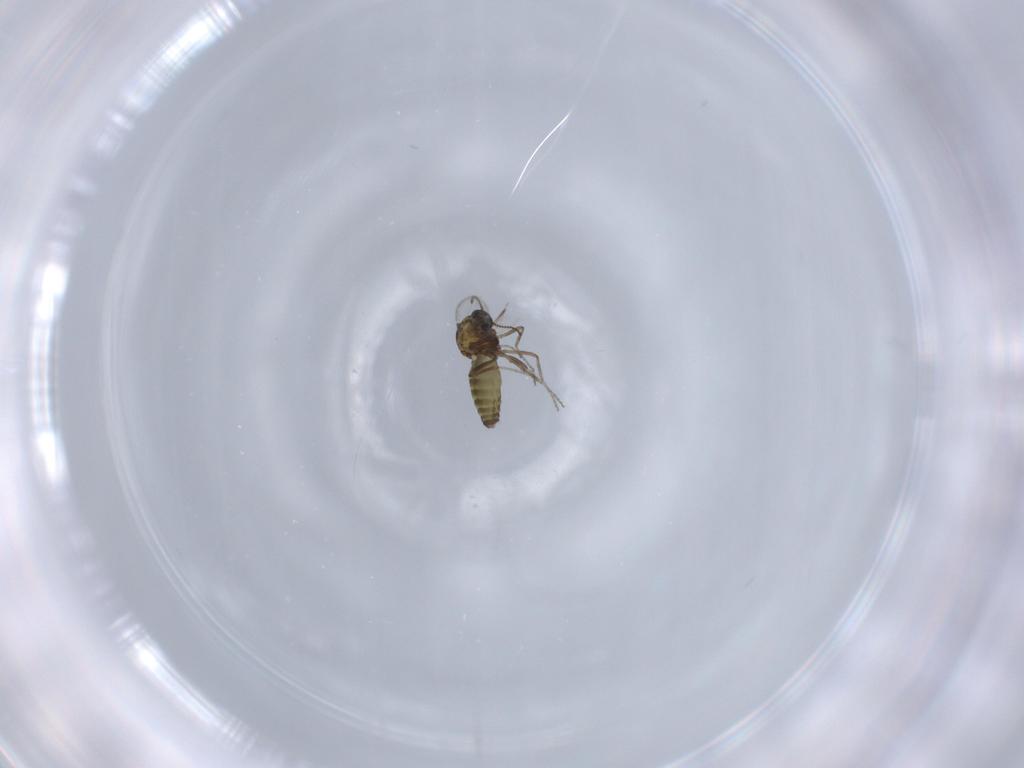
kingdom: Animalia
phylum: Arthropoda
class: Insecta
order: Diptera
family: Ceratopogonidae
